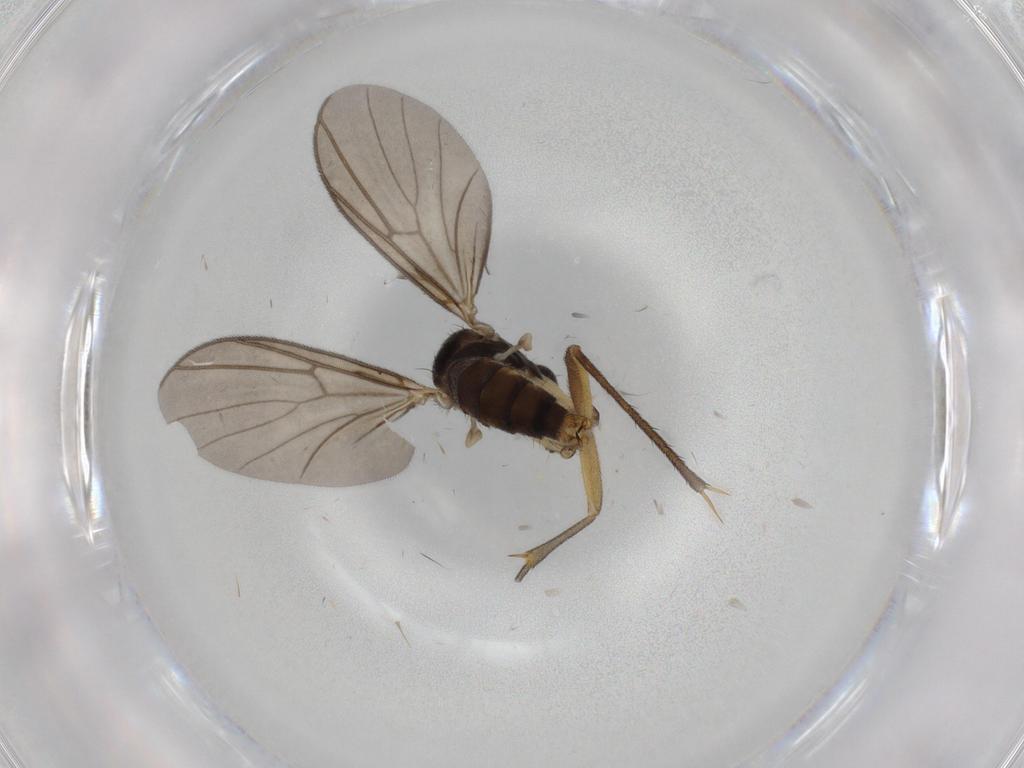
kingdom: Animalia
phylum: Arthropoda
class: Insecta
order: Diptera
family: Mycetophilidae
